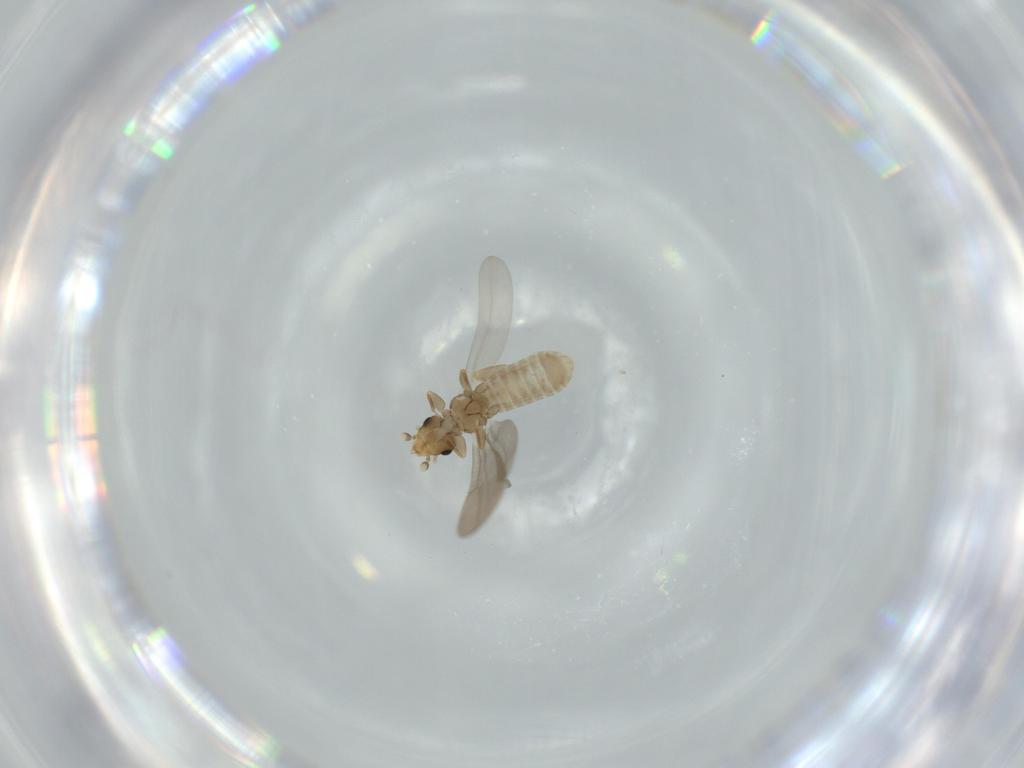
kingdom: Animalia
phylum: Arthropoda
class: Insecta
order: Psocodea
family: Liposcelididae
